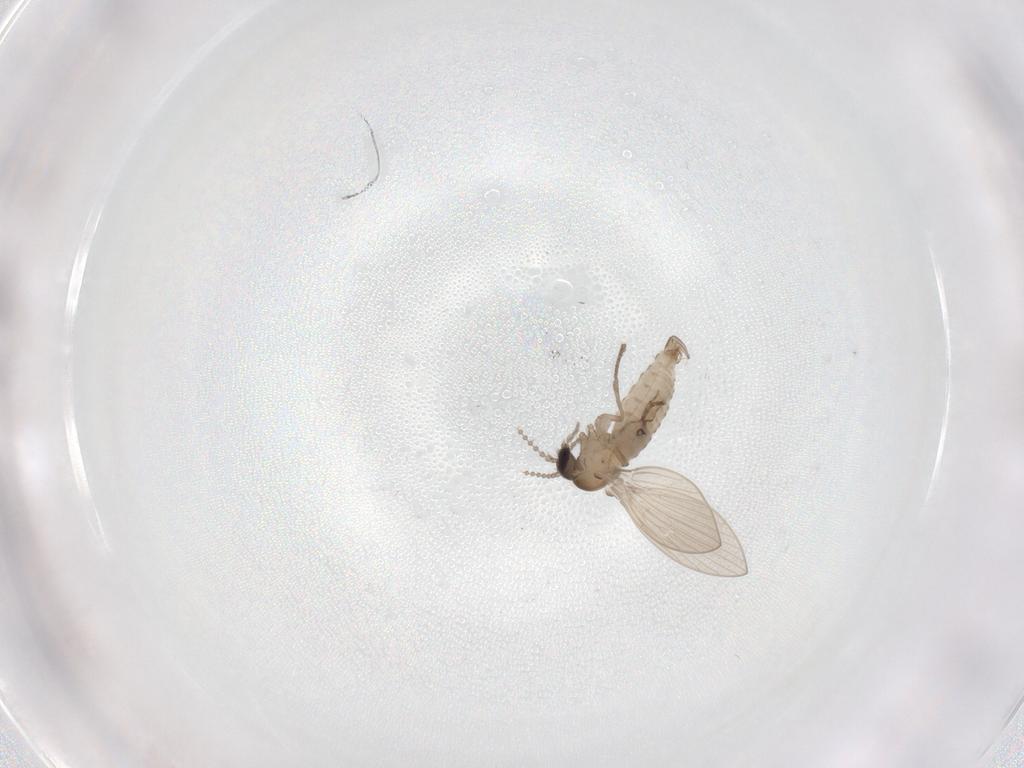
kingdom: Animalia
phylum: Arthropoda
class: Insecta
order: Diptera
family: Psychodidae
